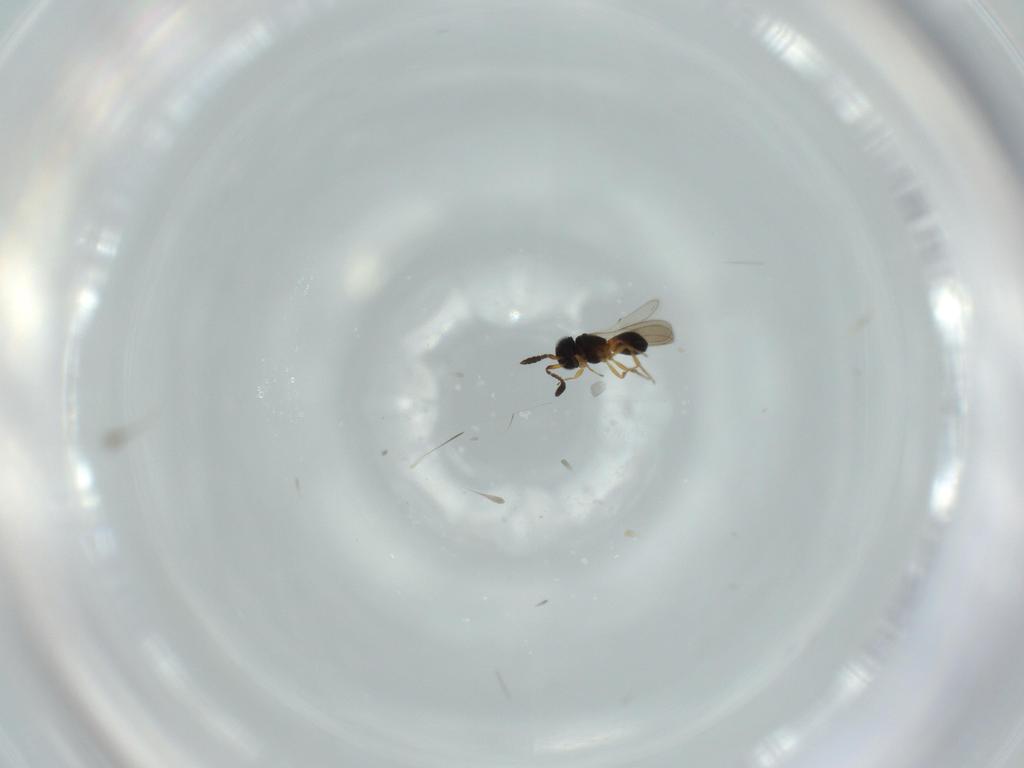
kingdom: Animalia
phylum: Arthropoda
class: Insecta
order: Hymenoptera
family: Scelionidae
